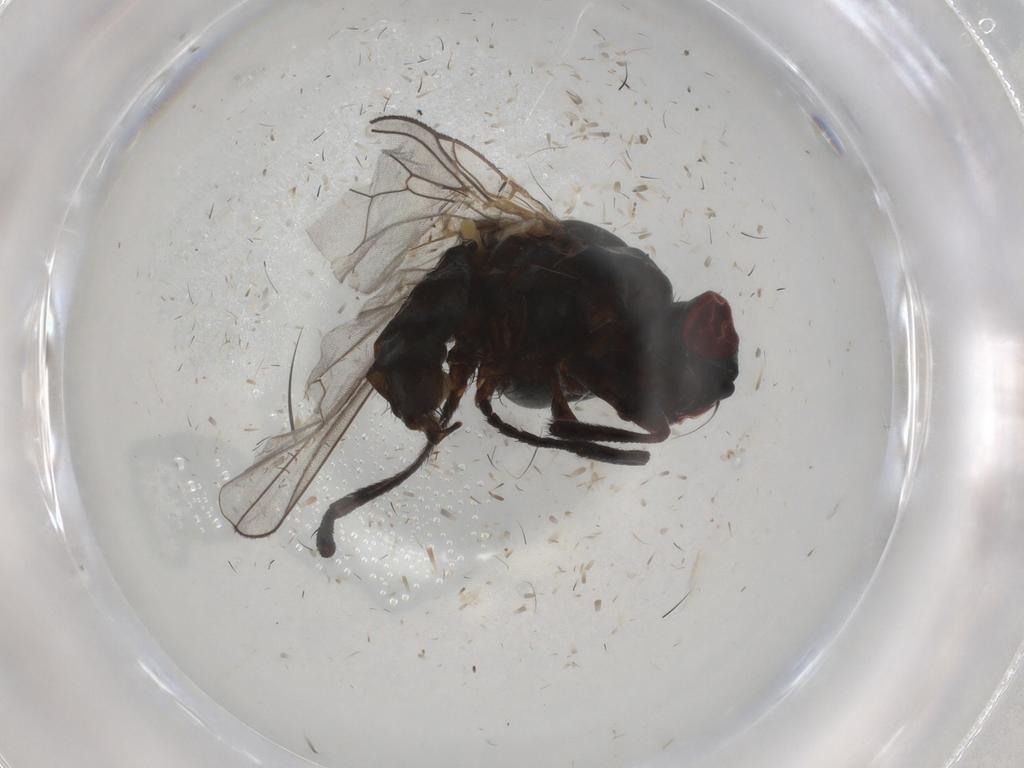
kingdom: Animalia
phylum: Arthropoda
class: Insecta
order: Diptera
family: Anthomyiidae
